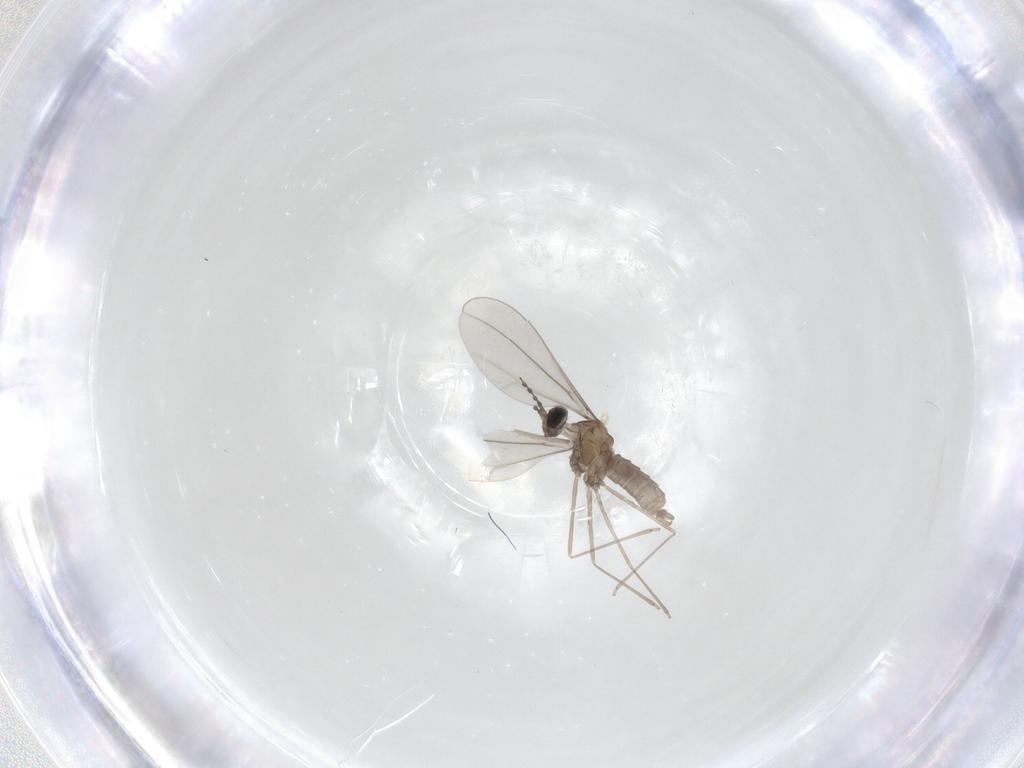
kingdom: Animalia
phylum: Arthropoda
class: Insecta
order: Diptera
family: Cecidomyiidae
